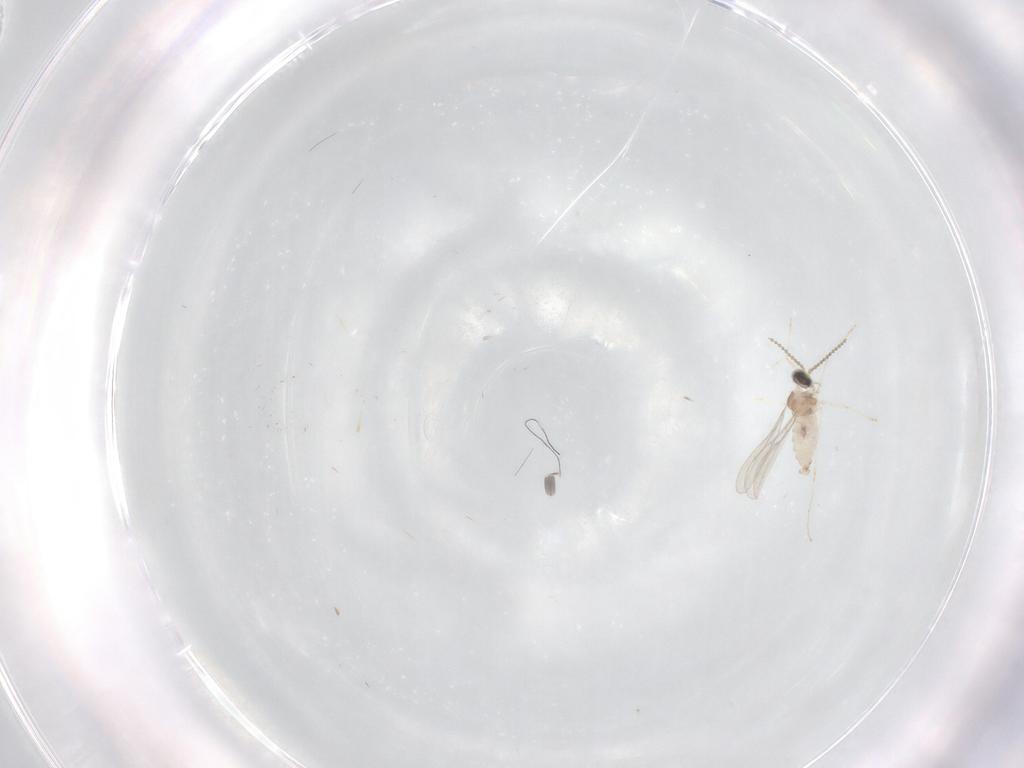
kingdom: Animalia
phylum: Arthropoda
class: Insecta
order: Diptera
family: Cecidomyiidae
